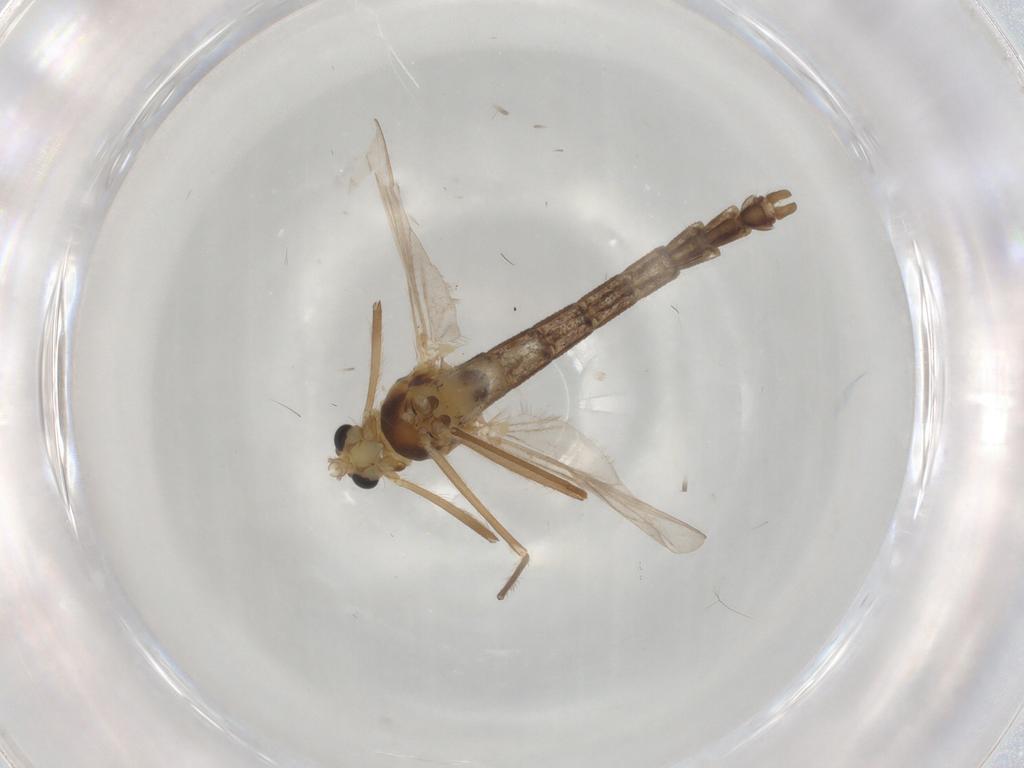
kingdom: Animalia
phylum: Arthropoda
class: Insecta
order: Diptera
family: Chironomidae
